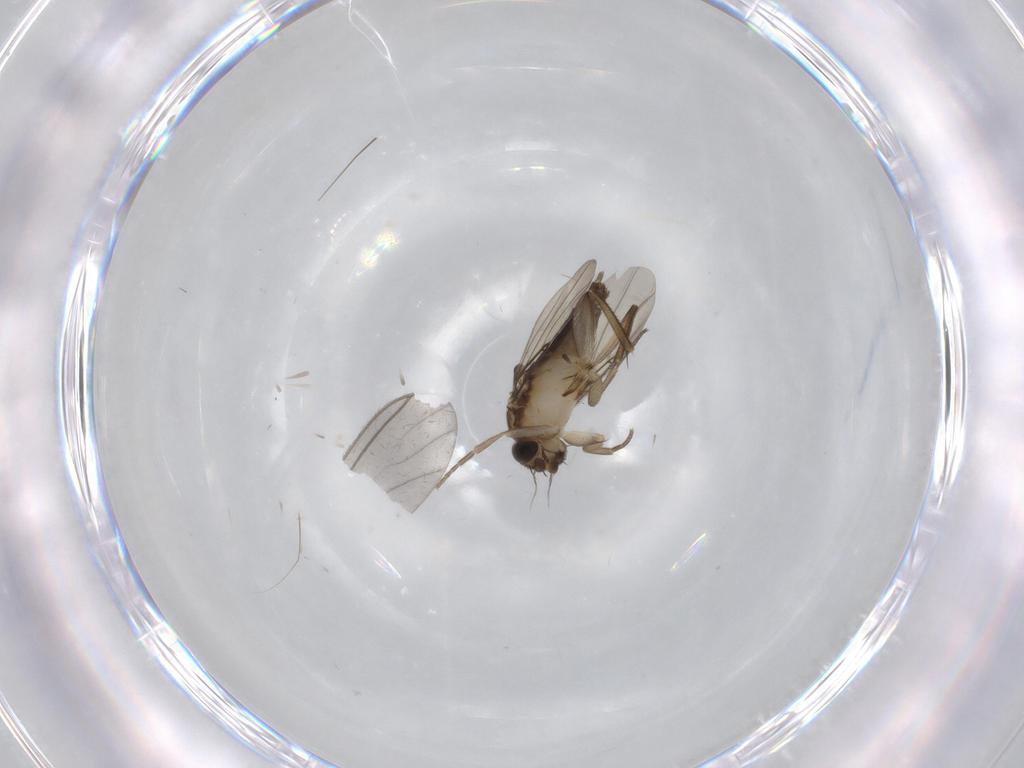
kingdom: Animalia
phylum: Arthropoda
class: Insecta
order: Diptera
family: Phoridae
